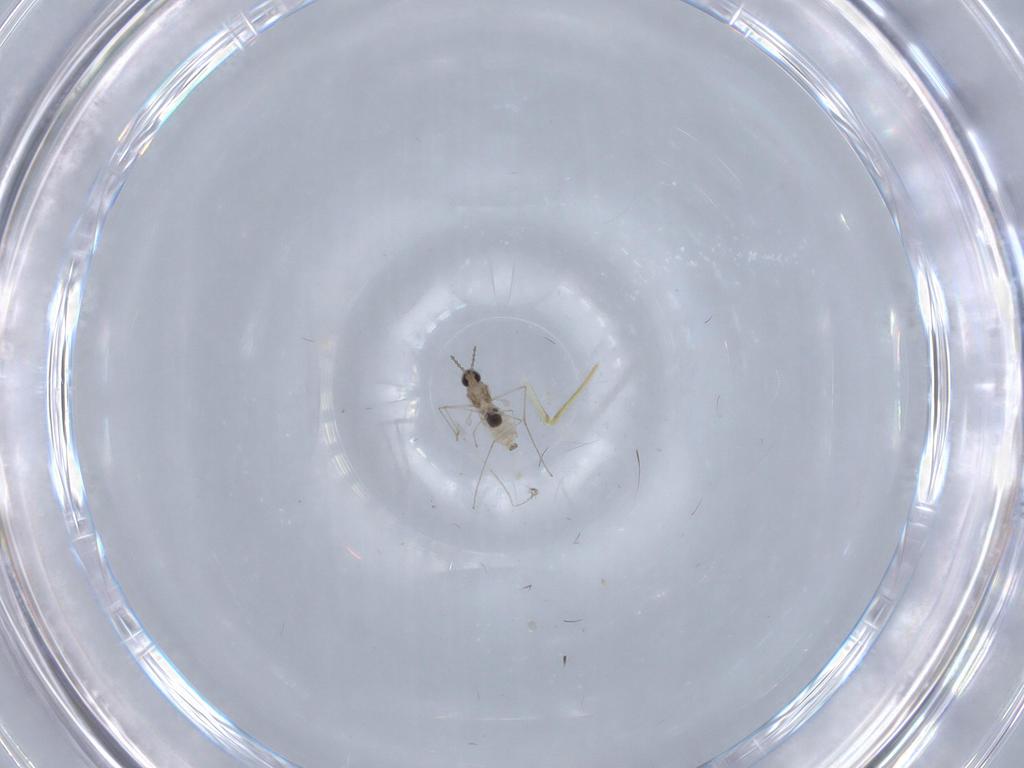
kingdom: Animalia
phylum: Arthropoda
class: Insecta
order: Diptera
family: Cecidomyiidae
